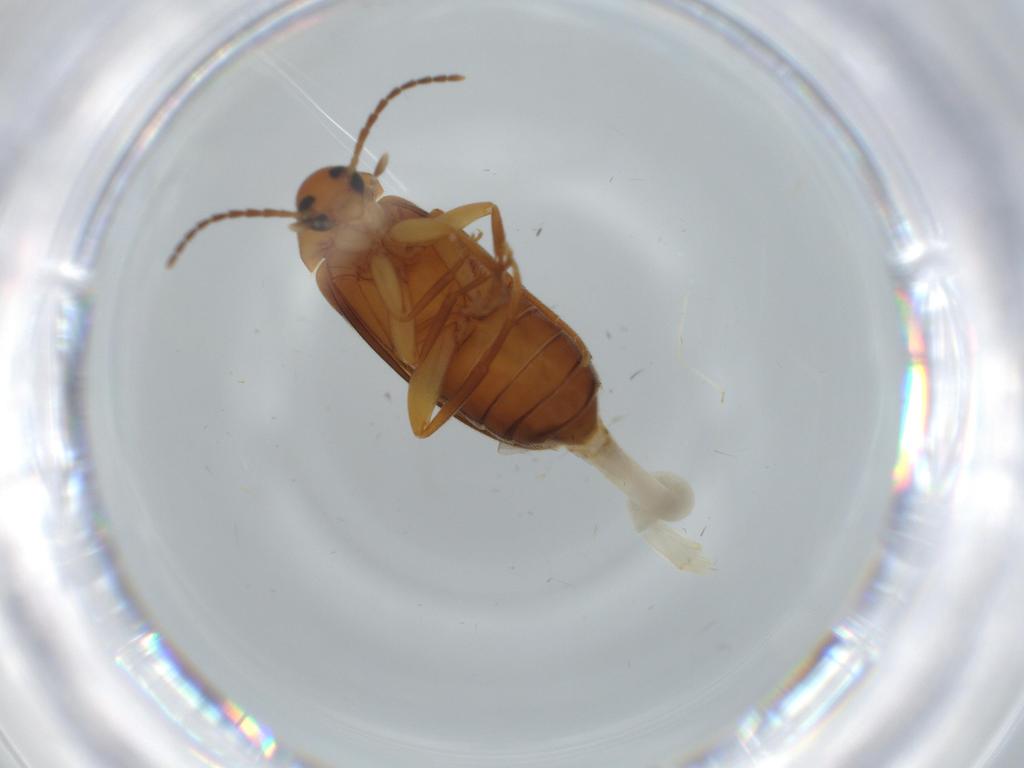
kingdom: Animalia
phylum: Arthropoda
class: Insecta
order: Coleoptera
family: Scraptiidae
